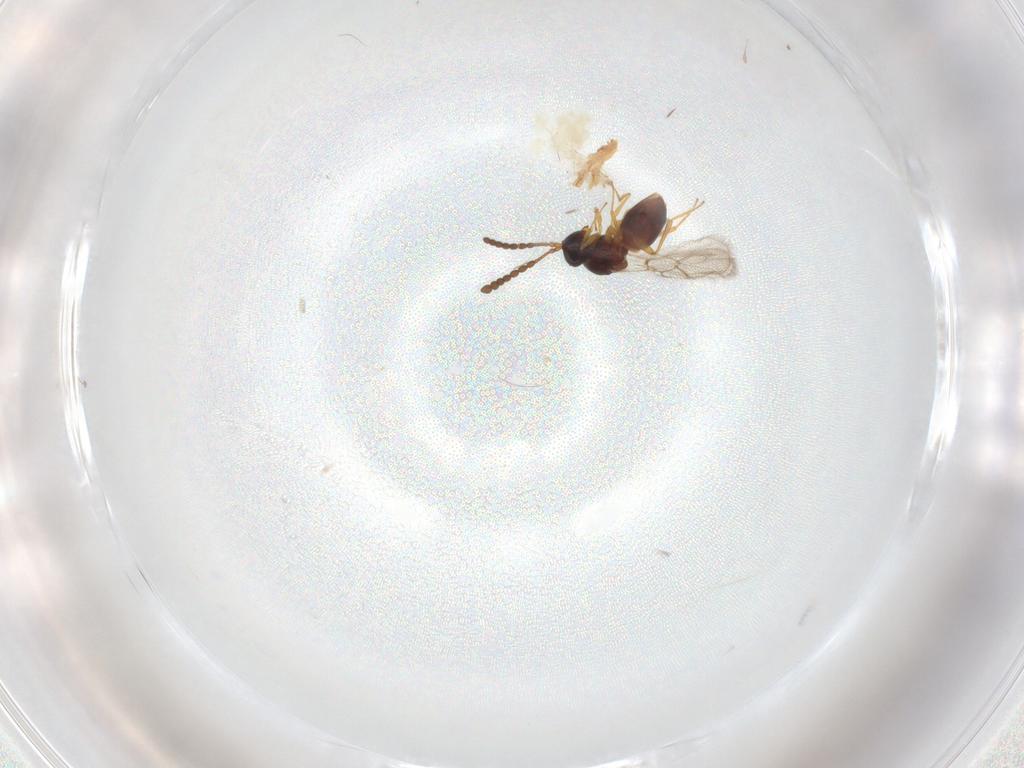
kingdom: Animalia
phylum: Arthropoda
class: Insecta
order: Hymenoptera
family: Figitidae
